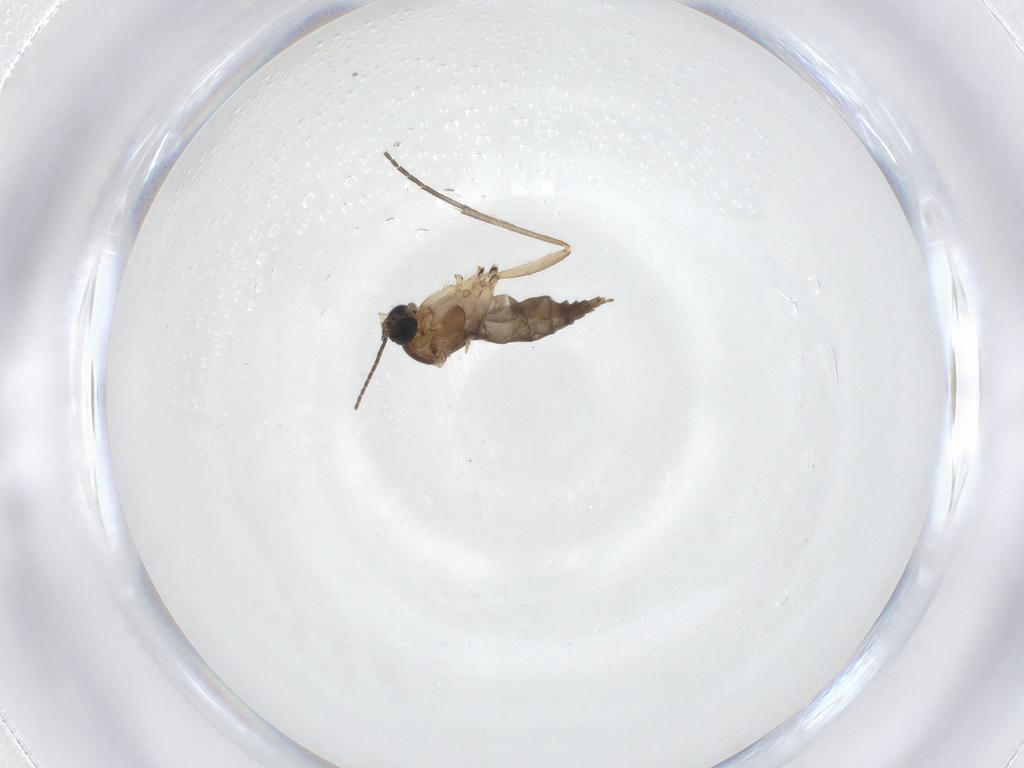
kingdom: Animalia
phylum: Arthropoda
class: Insecta
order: Diptera
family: Sciaridae
